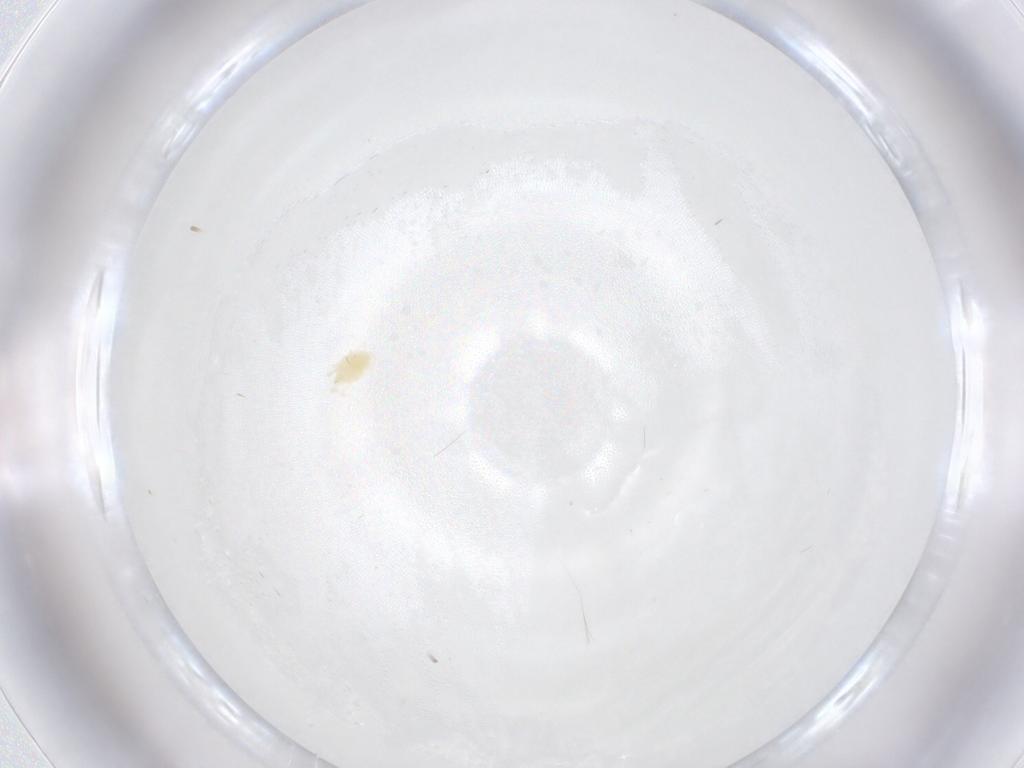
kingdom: Animalia
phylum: Arthropoda
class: Arachnida
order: Trombidiformes
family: Tetranychidae
